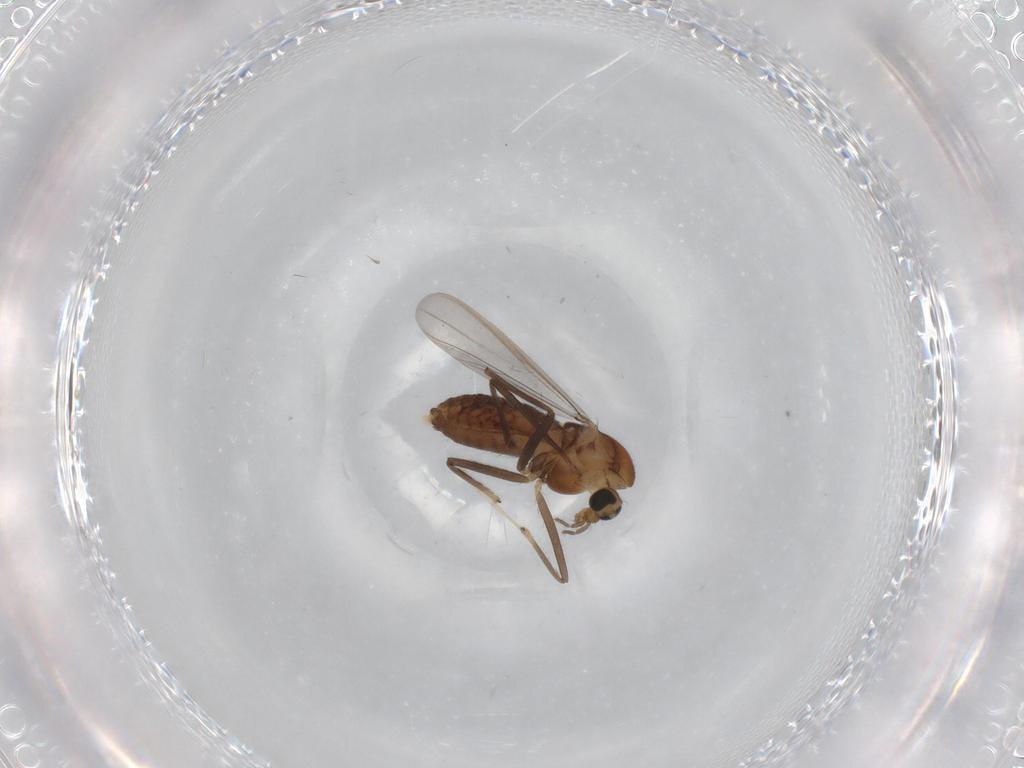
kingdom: Animalia
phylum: Arthropoda
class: Insecta
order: Diptera
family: Chironomidae
